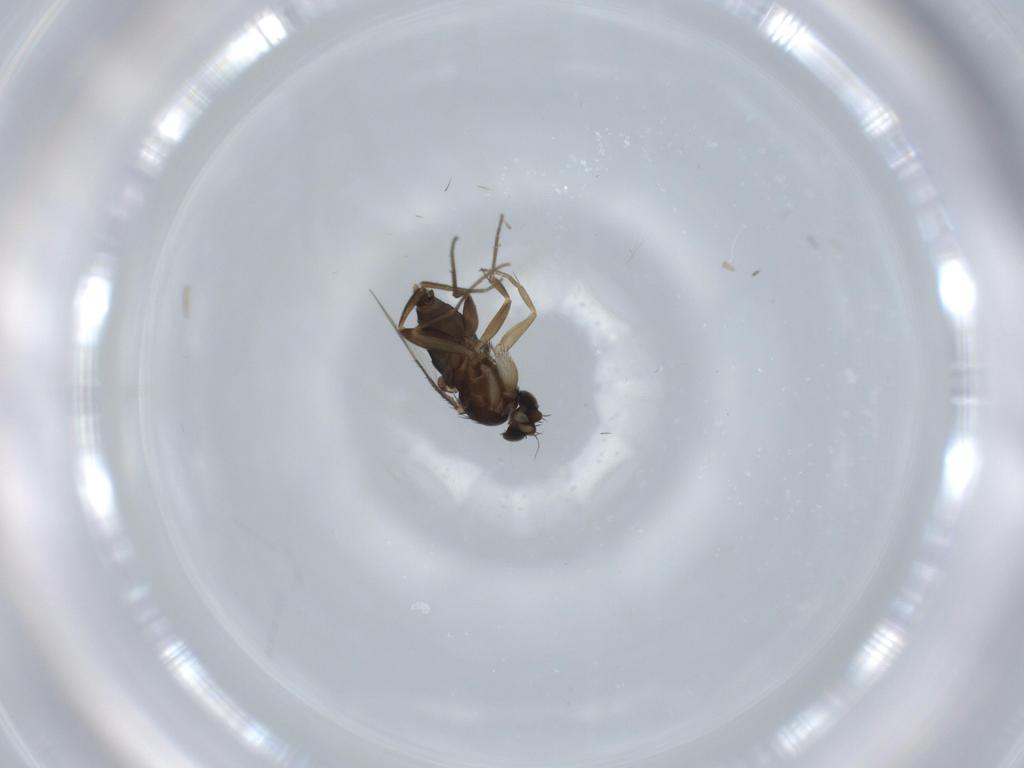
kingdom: Animalia
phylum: Arthropoda
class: Insecta
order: Diptera
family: Phoridae
